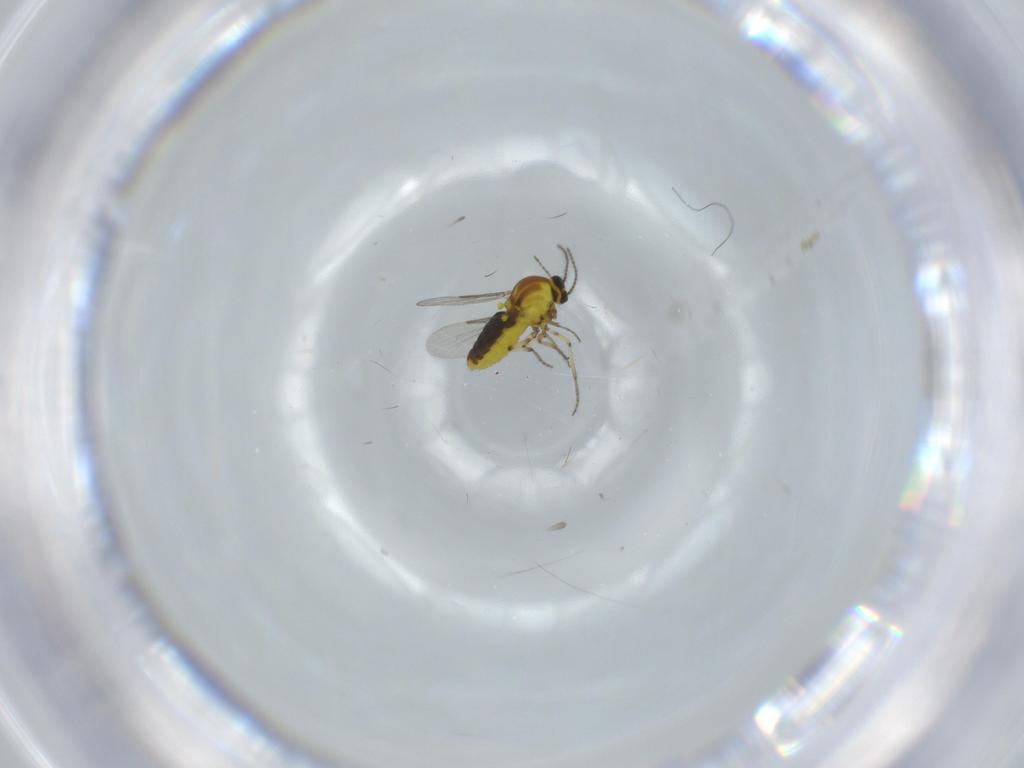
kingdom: Animalia
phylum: Arthropoda
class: Insecta
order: Diptera
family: Ceratopogonidae
